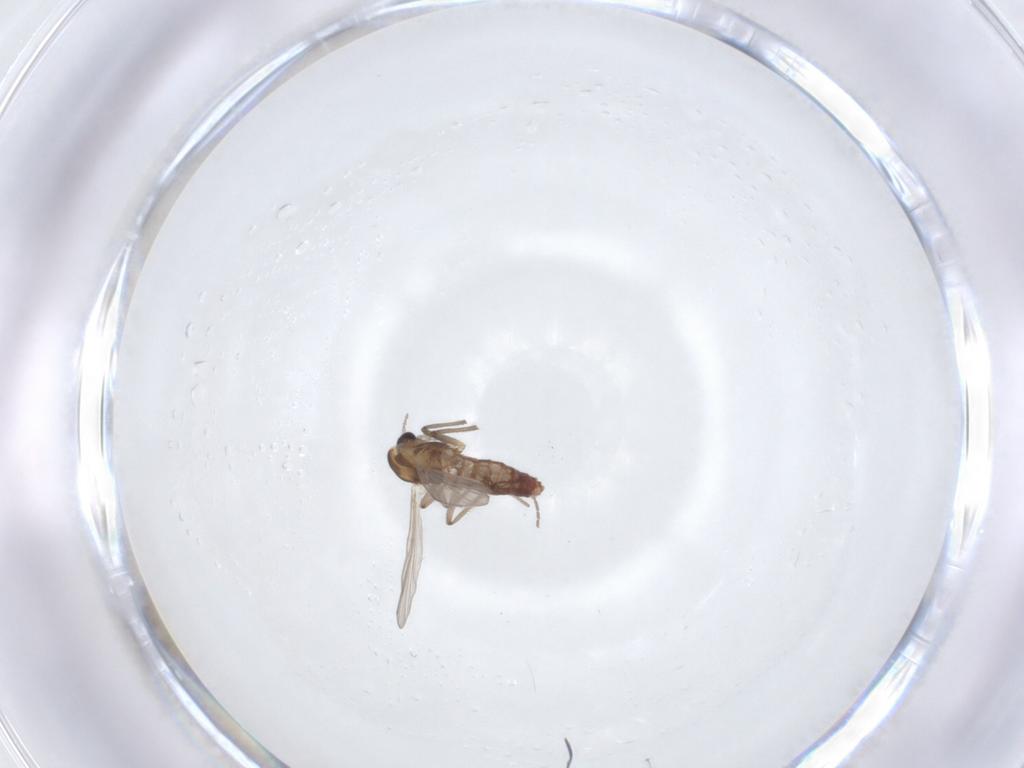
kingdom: Animalia
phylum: Arthropoda
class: Insecta
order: Diptera
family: Chironomidae
